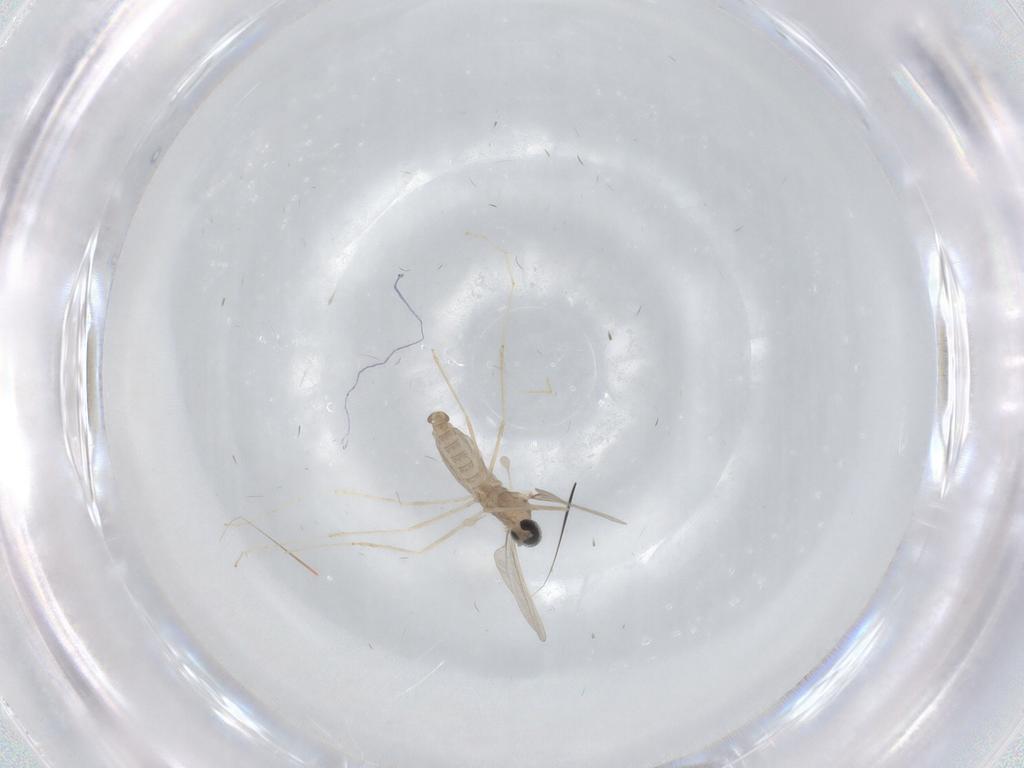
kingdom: Animalia
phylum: Arthropoda
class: Insecta
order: Diptera
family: Cecidomyiidae
